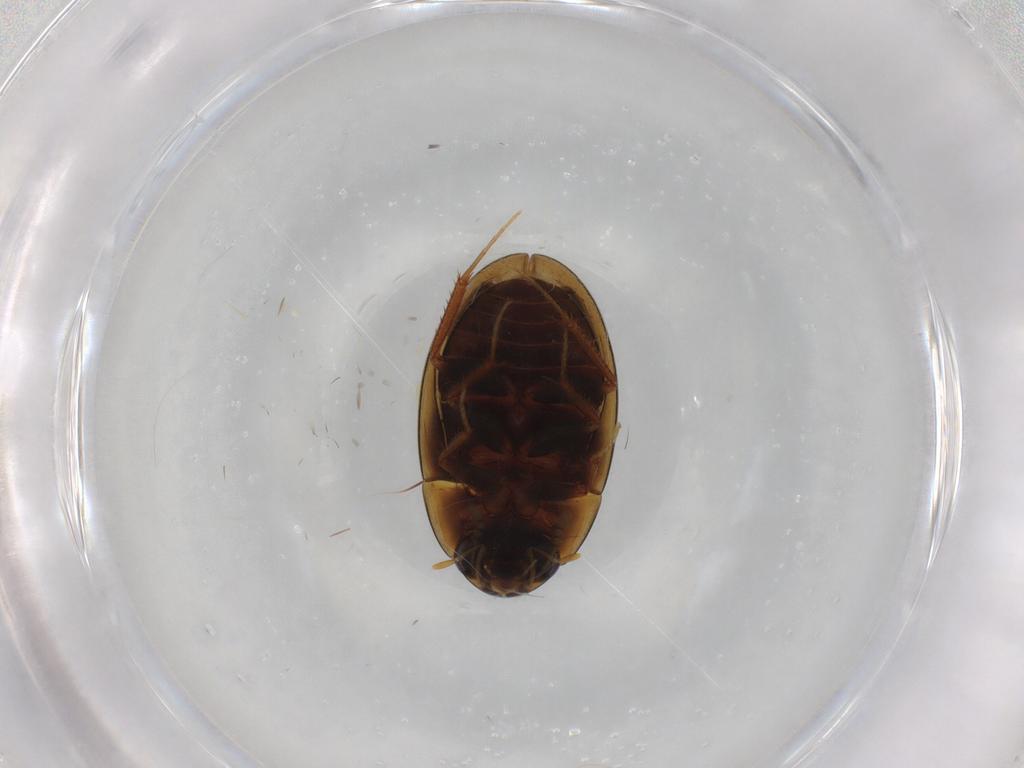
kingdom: Animalia
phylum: Arthropoda
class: Insecta
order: Coleoptera
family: Staphylinidae
